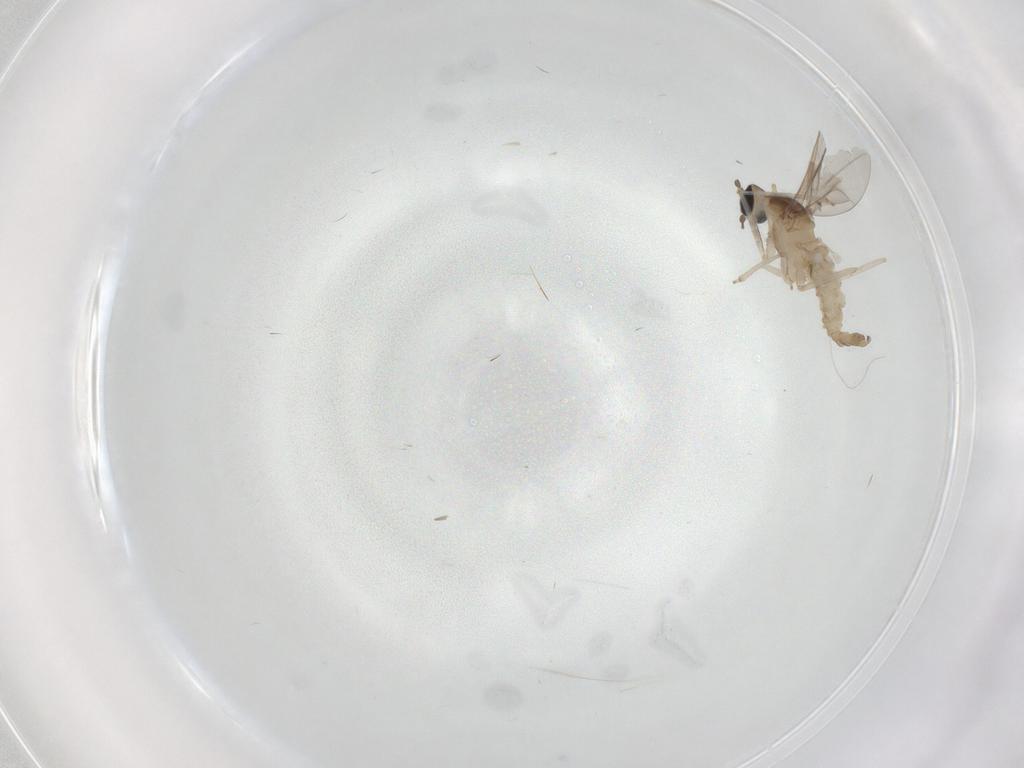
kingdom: Animalia
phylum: Arthropoda
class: Insecta
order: Diptera
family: Cecidomyiidae
